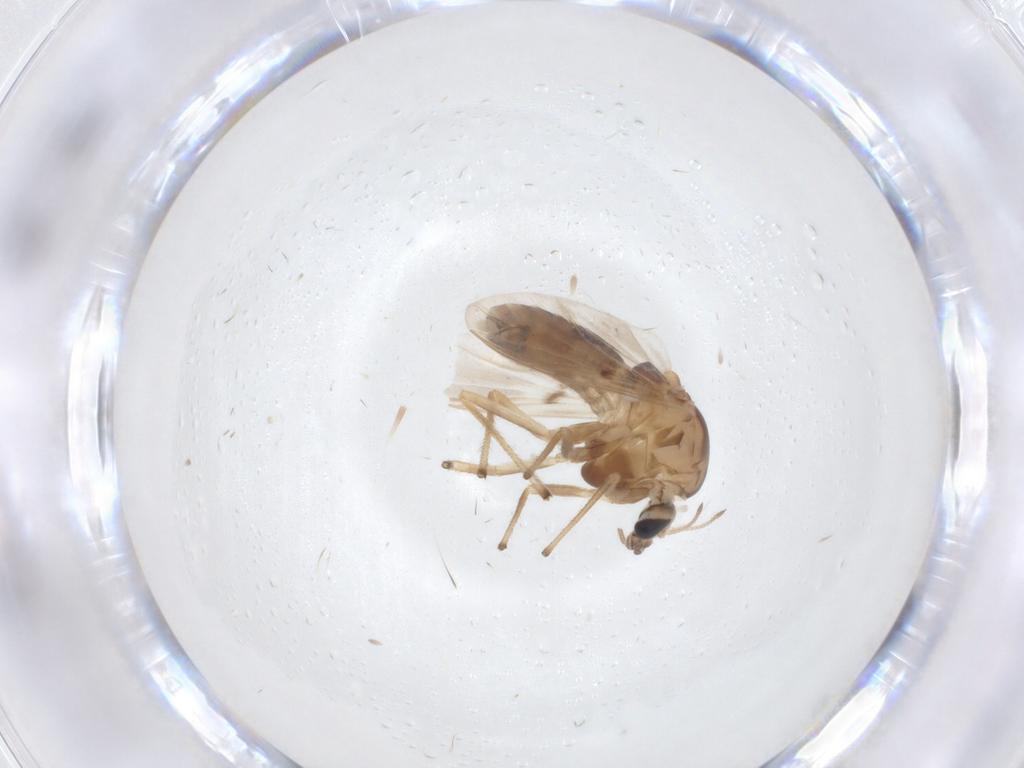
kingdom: Animalia
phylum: Arthropoda
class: Insecta
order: Diptera
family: Chironomidae
